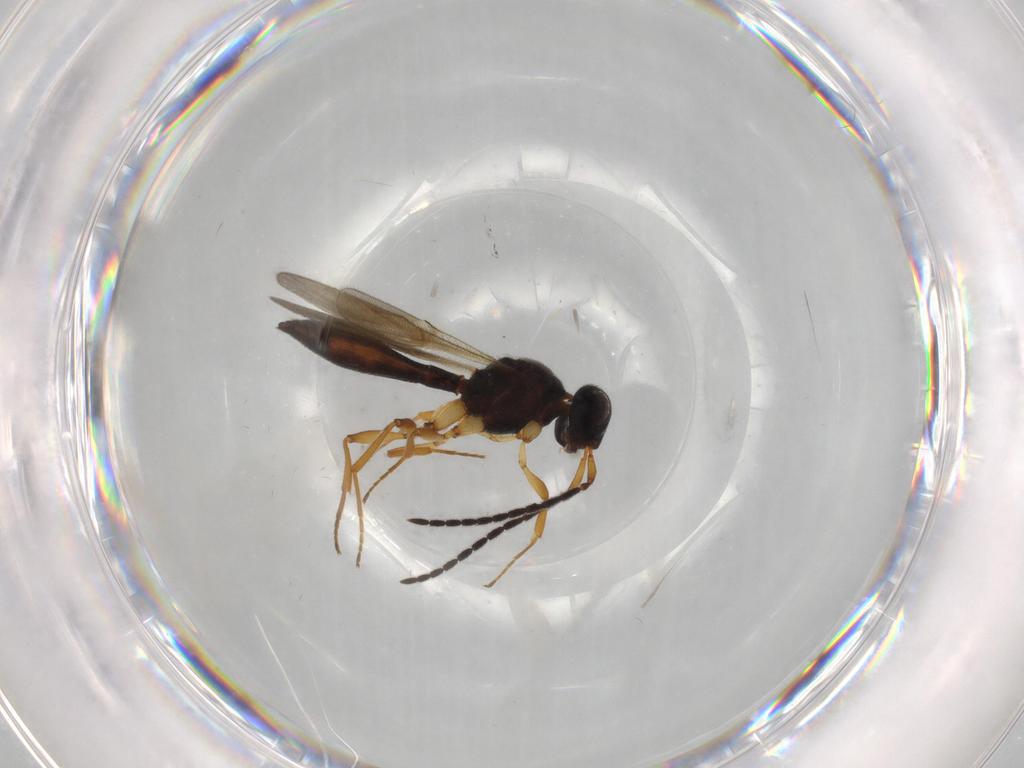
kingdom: Animalia
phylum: Arthropoda
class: Insecta
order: Hymenoptera
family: Scelionidae
